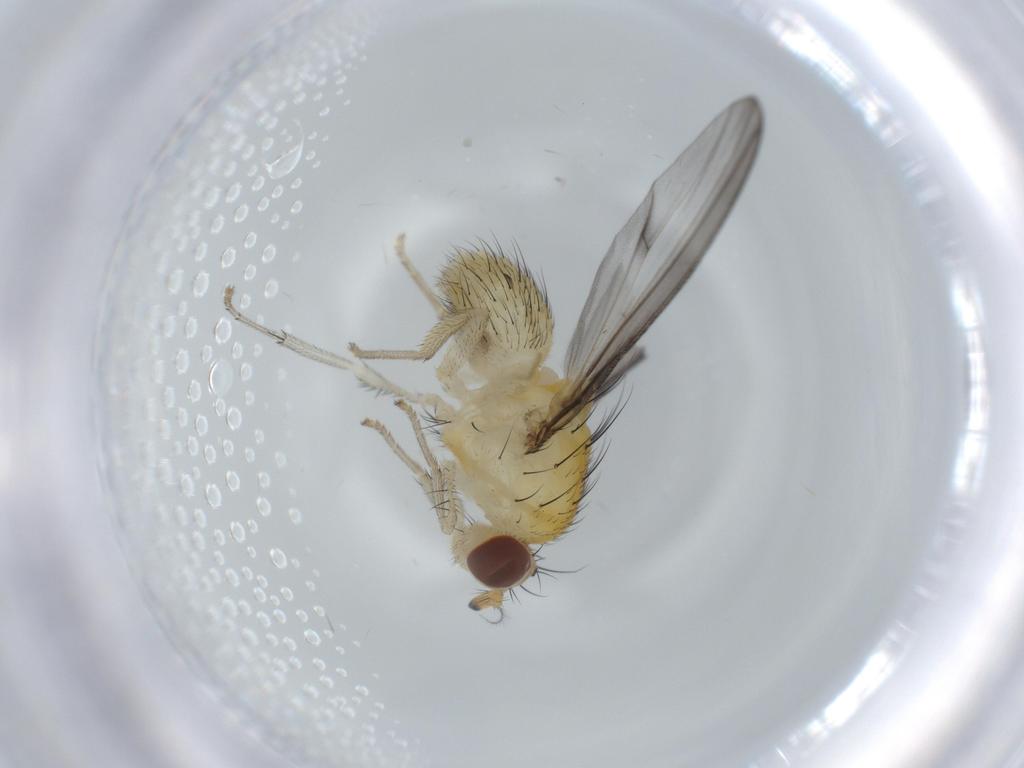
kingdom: Animalia
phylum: Arthropoda
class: Insecta
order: Diptera
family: Lauxaniidae
